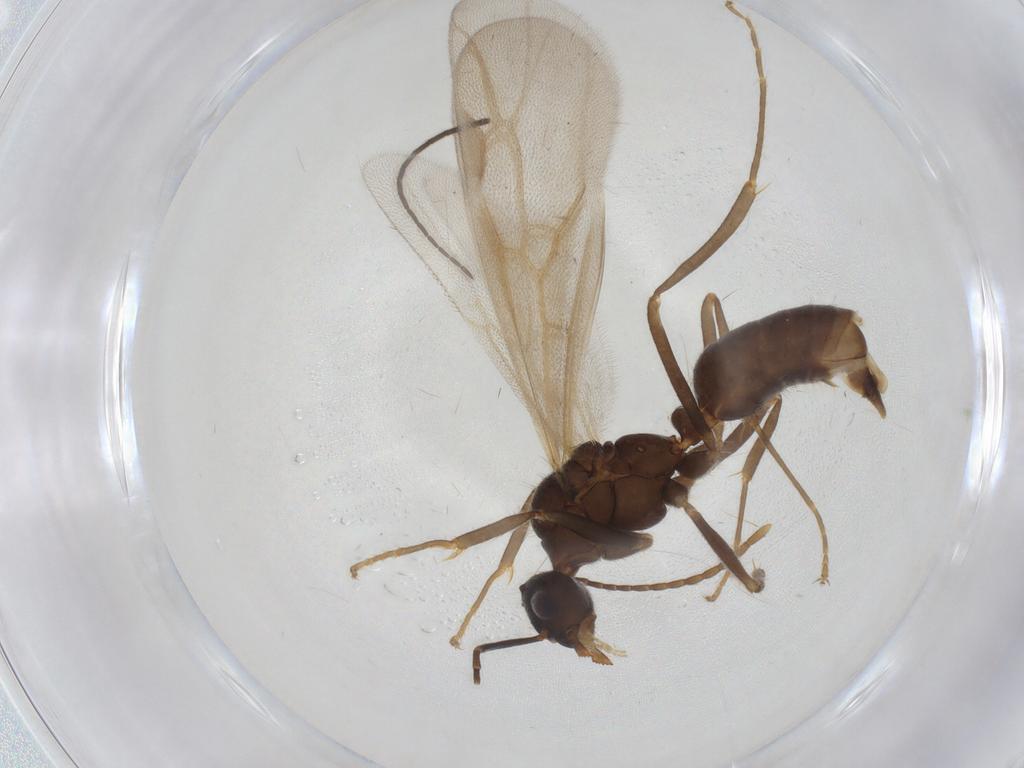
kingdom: Animalia
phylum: Arthropoda
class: Insecta
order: Hymenoptera
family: Formicidae
